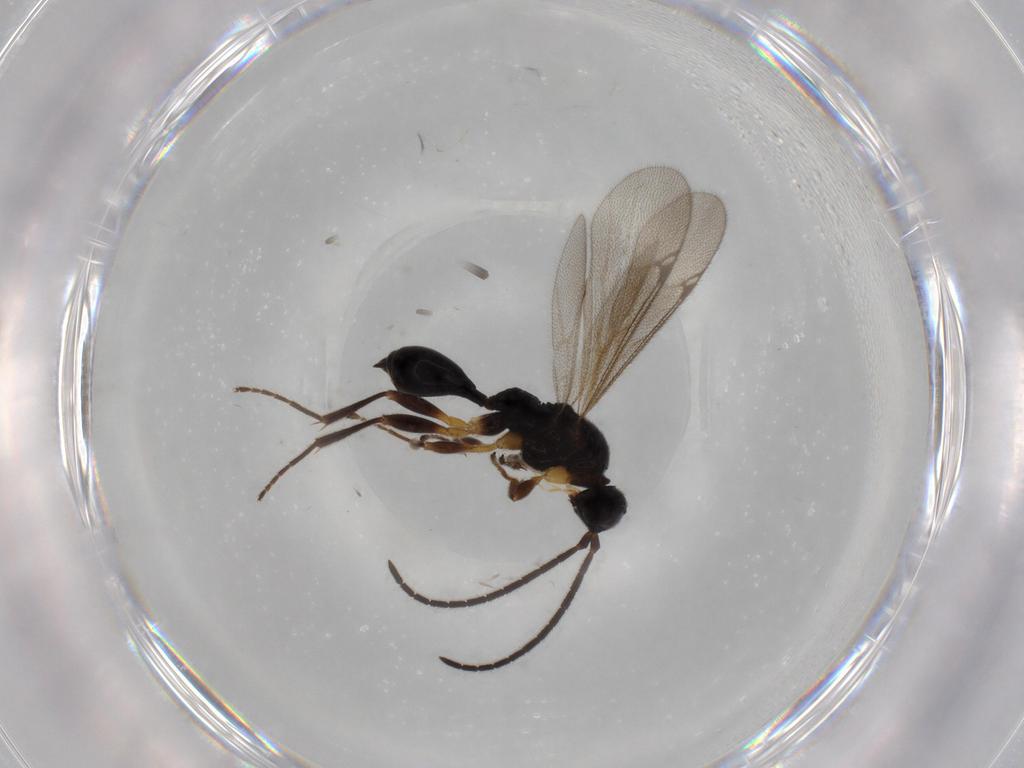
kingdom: Animalia
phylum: Arthropoda
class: Insecta
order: Hymenoptera
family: Proctotrupidae
